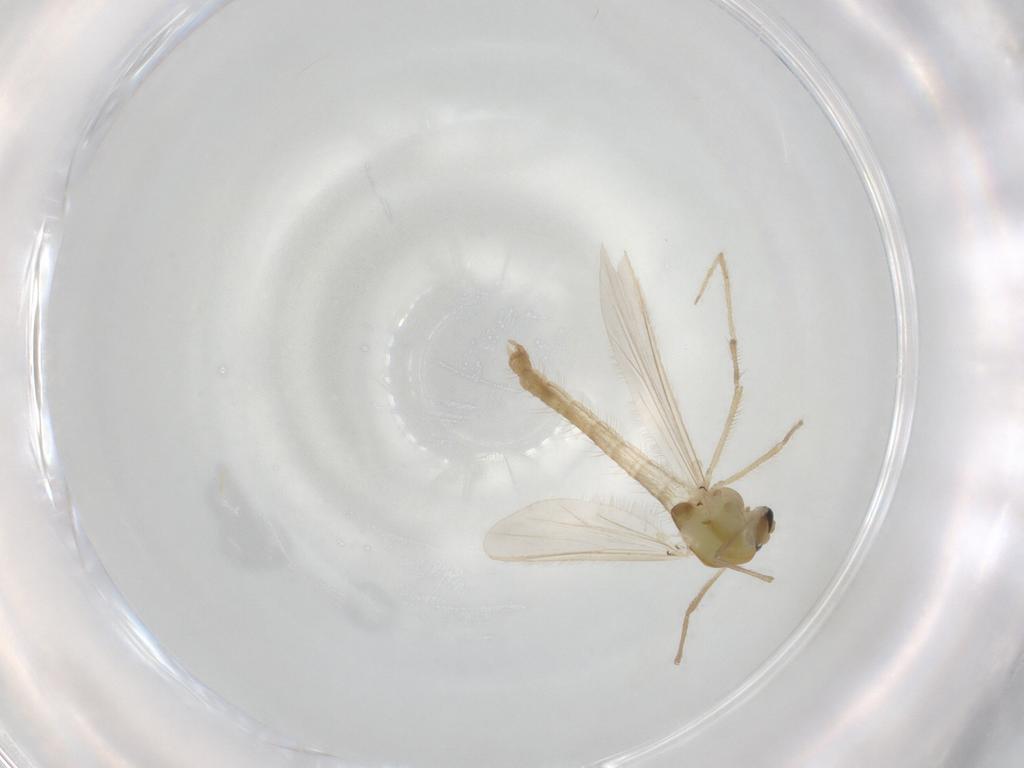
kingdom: Animalia
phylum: Arthropoda
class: Insecta
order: Diptera
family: Chironomidae
